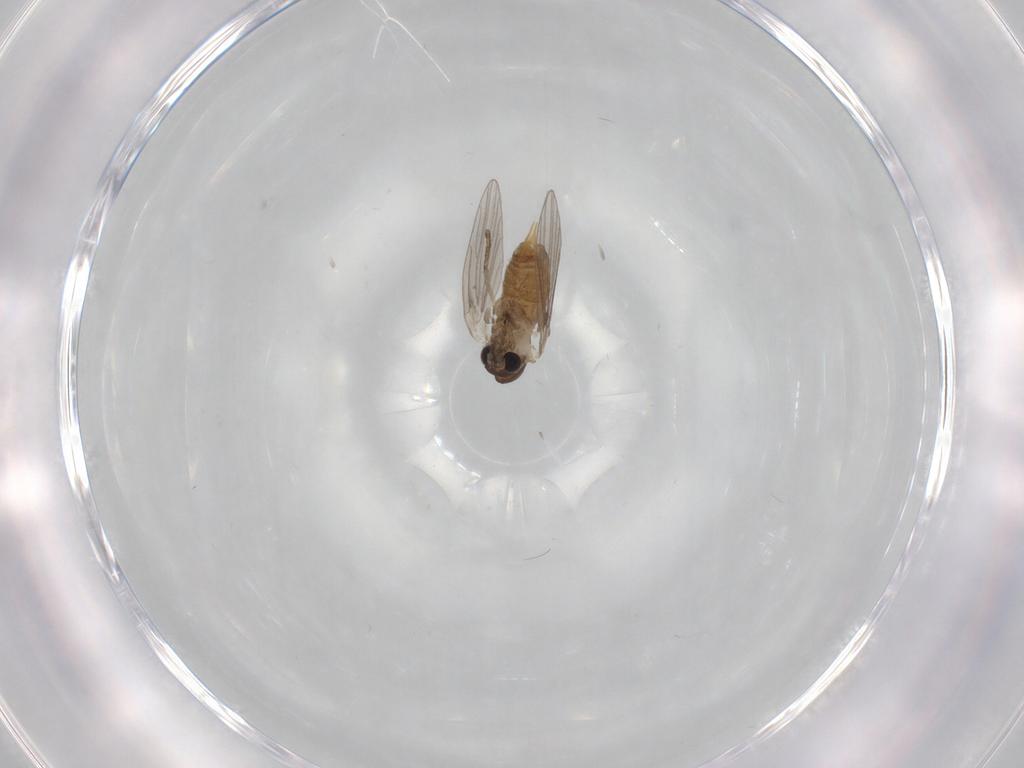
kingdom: Animalia
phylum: Arthropoda
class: Insecta
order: Diptera
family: Psychodidae
